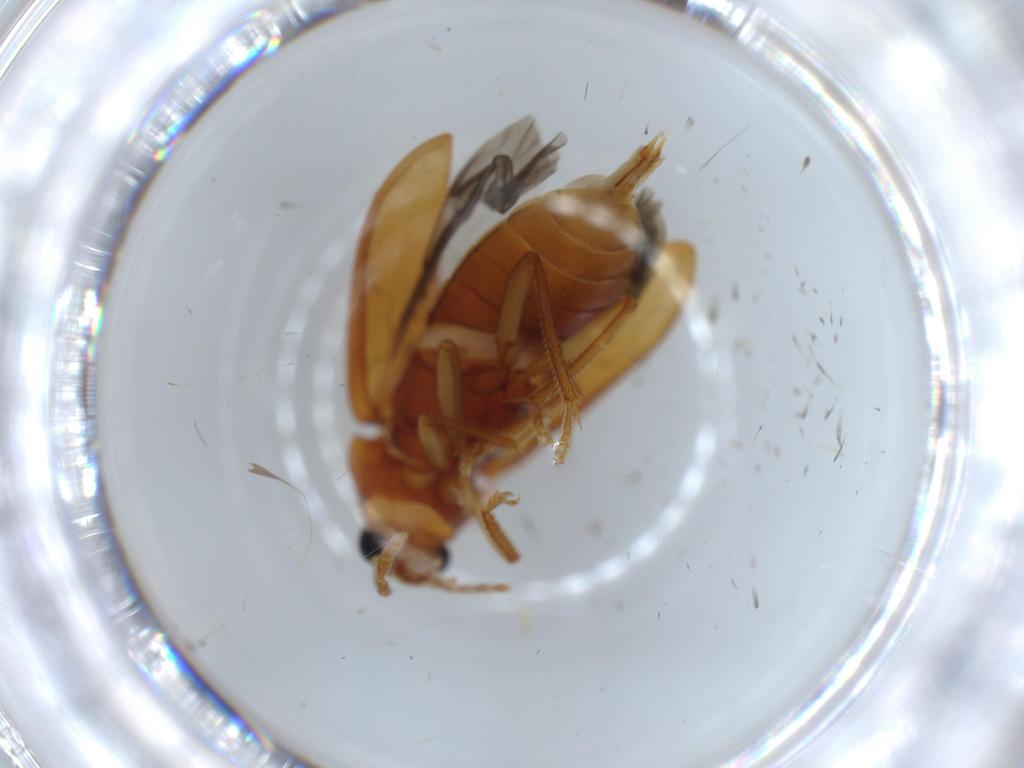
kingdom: Animalia
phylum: Arthropoda
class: Insecta
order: Coleoptera
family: Ptilodactylidae
